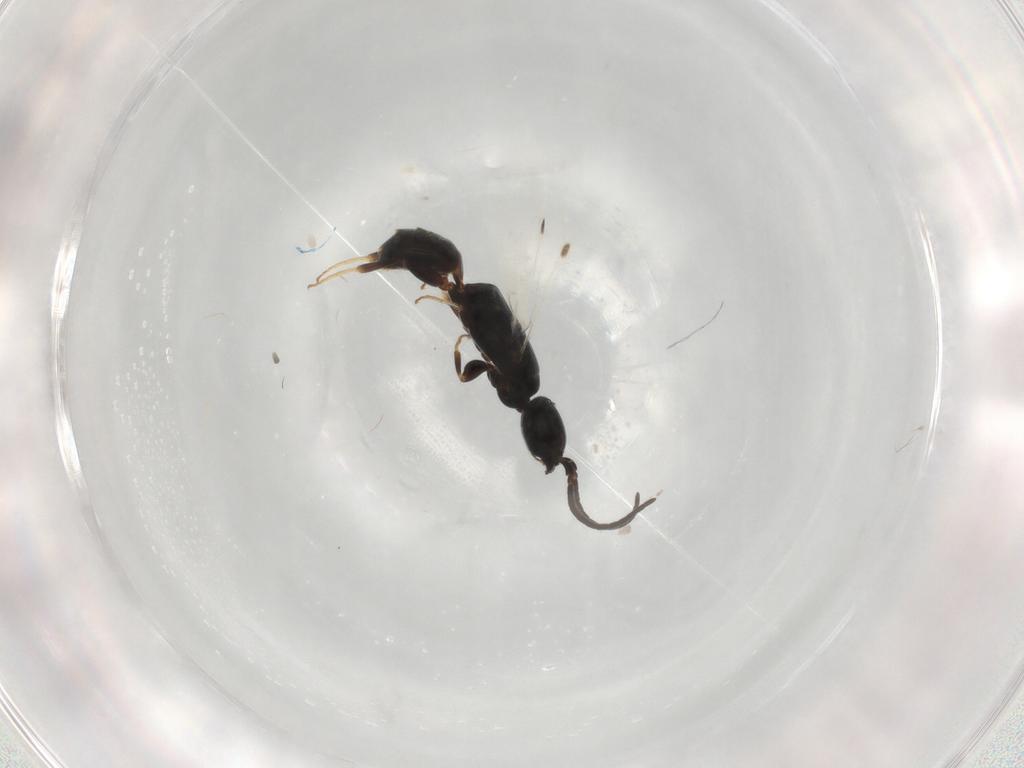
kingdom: Animalia
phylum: Arthropoda
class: Insecta
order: Hymenoptera
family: Bethylidae
